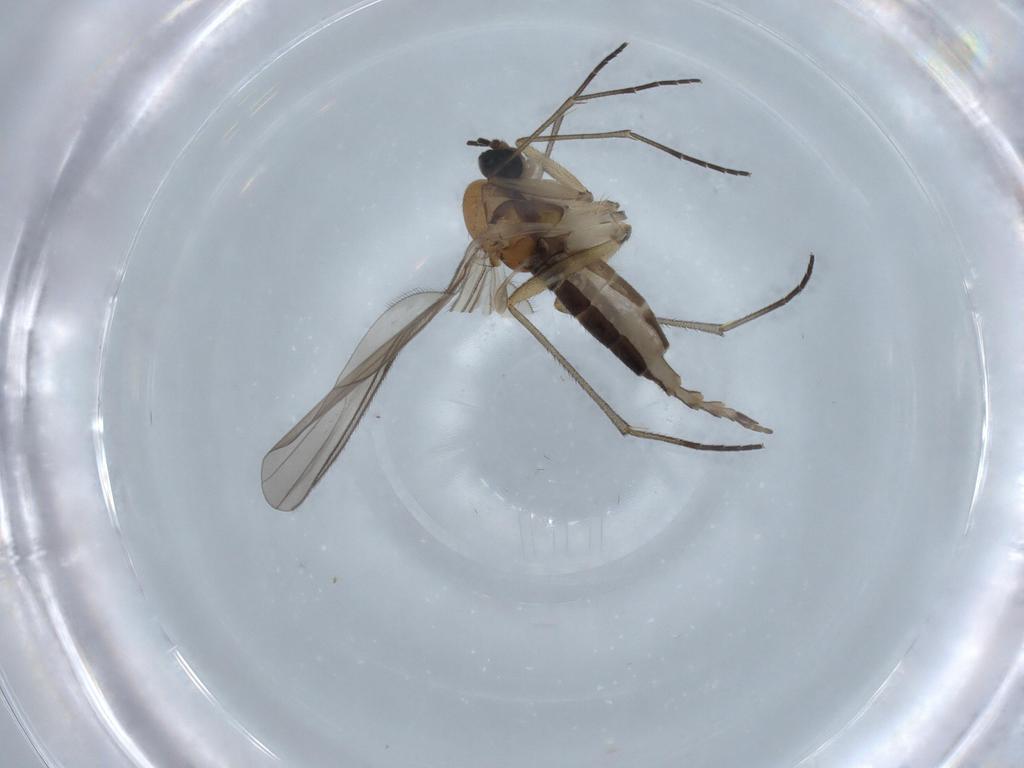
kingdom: Animalia
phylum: Arthropoda
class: Insecta
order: Diptera
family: Sciaridae
